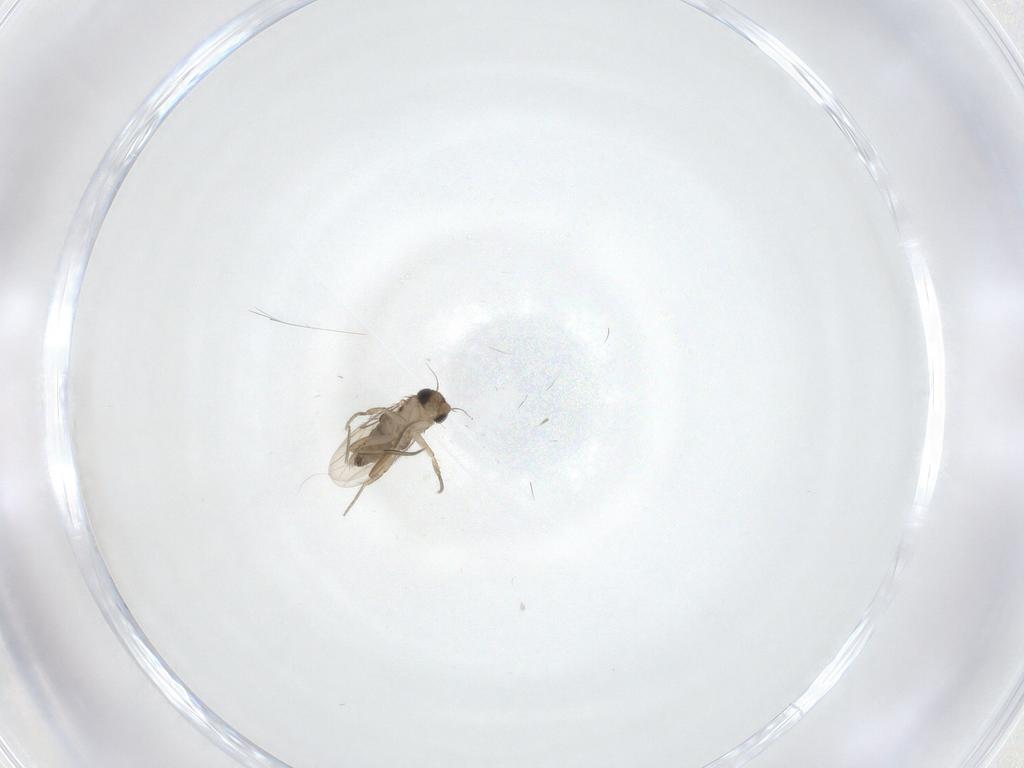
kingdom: Animalia
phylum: Arthropoda
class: Insecta
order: Diptera
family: Phoridae
